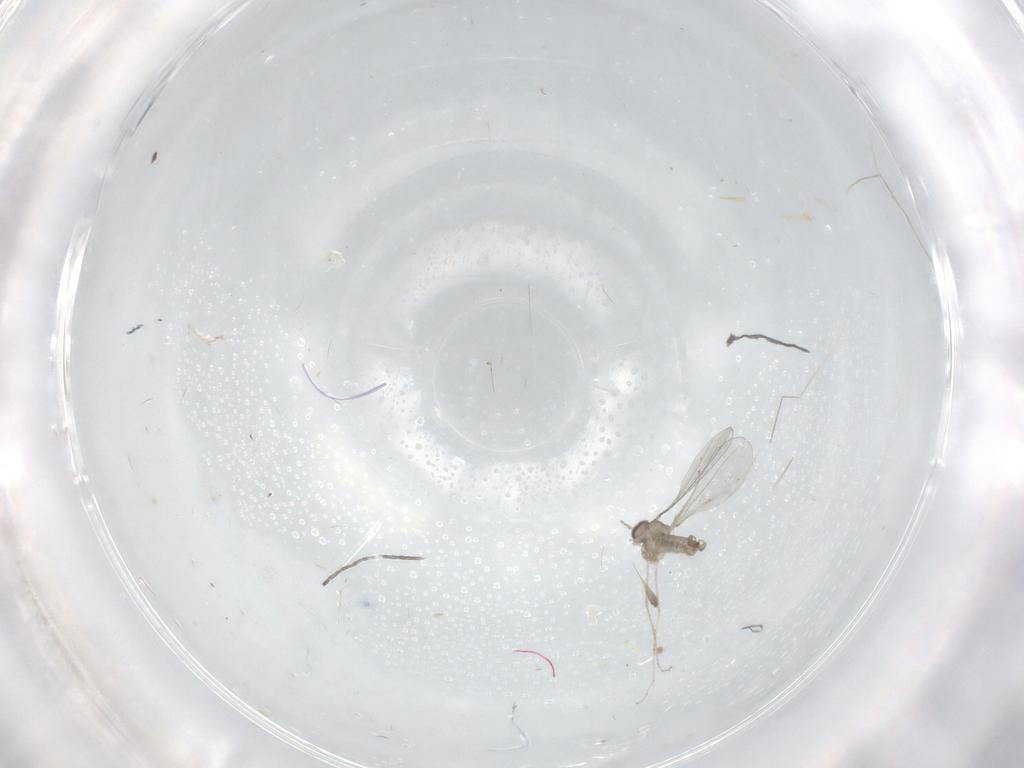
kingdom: Animalia
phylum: Arthropoda
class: Insecta
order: Diptera
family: Cecidomyiidae
